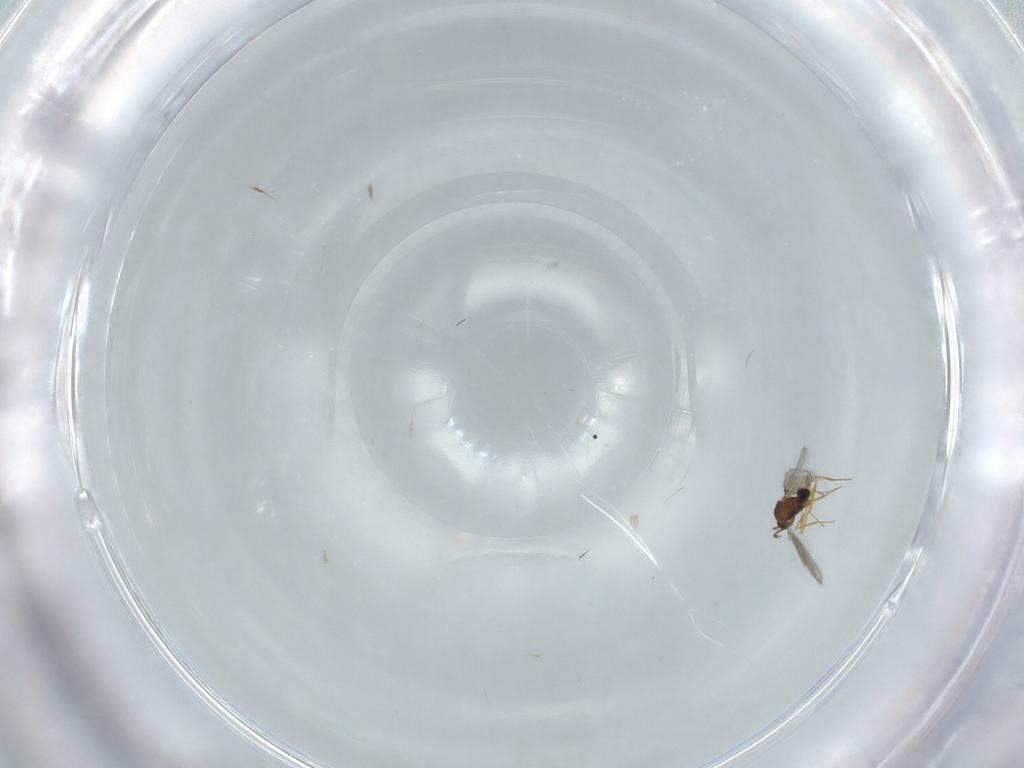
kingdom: Animalia
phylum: Arthropoda
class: Insecta
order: Hymenoptera
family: Mymaridae
